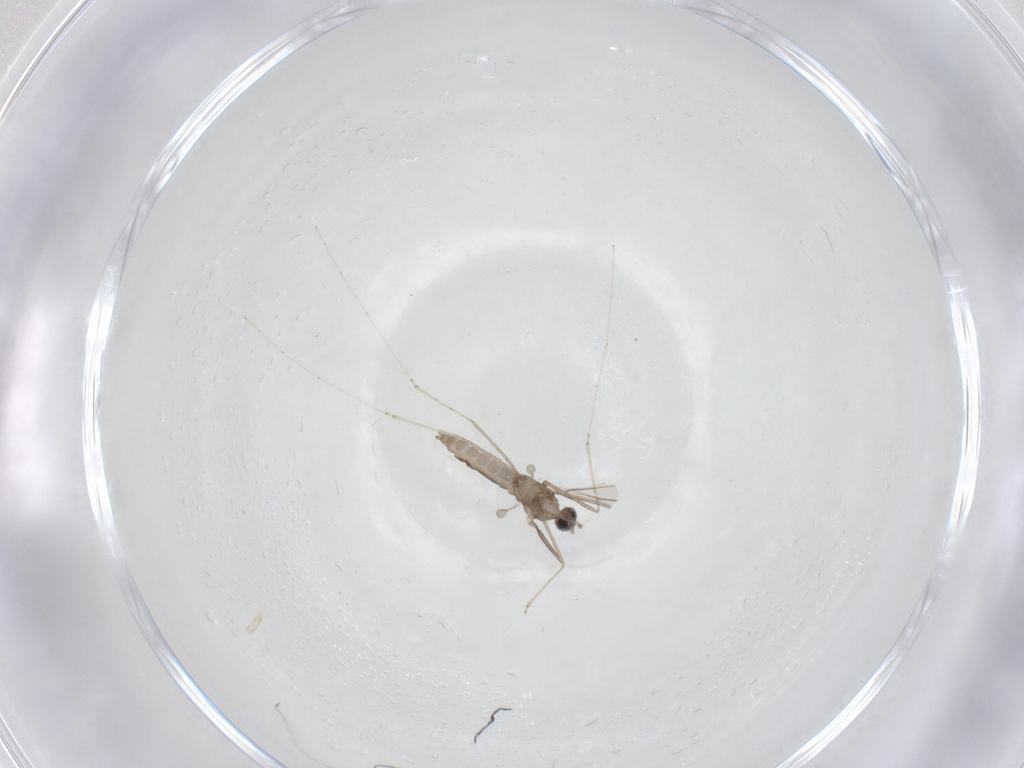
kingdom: Animalia
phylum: Arthropoda
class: Insecta
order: Diptera
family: Cecidomyiidae
